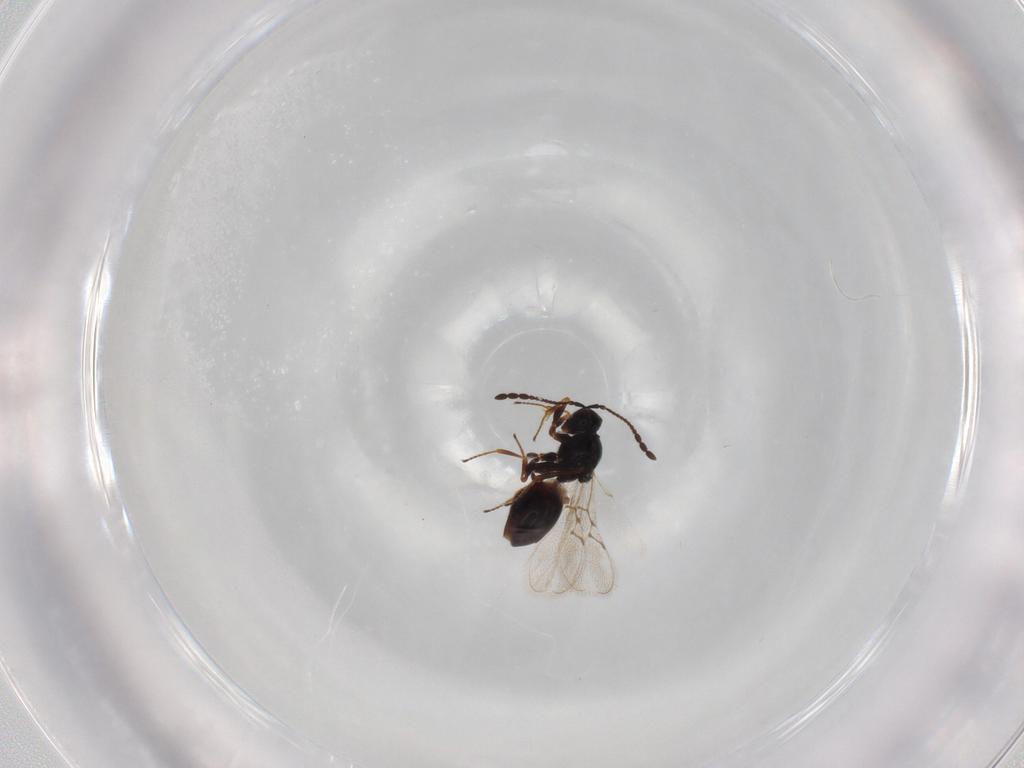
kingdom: Animalia
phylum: Arthropoda
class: Insecta
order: Hymenoptera
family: Figitidae
